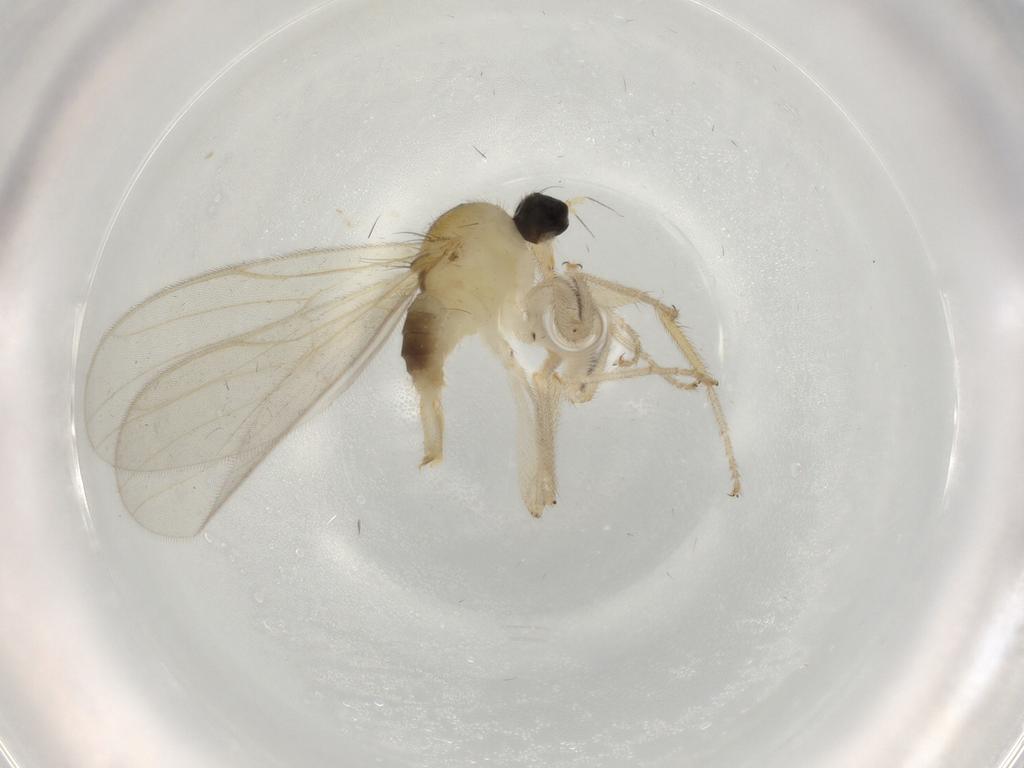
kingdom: Animalia
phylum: Arthropoda
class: Insecta
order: Diptera
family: Hybotidae
